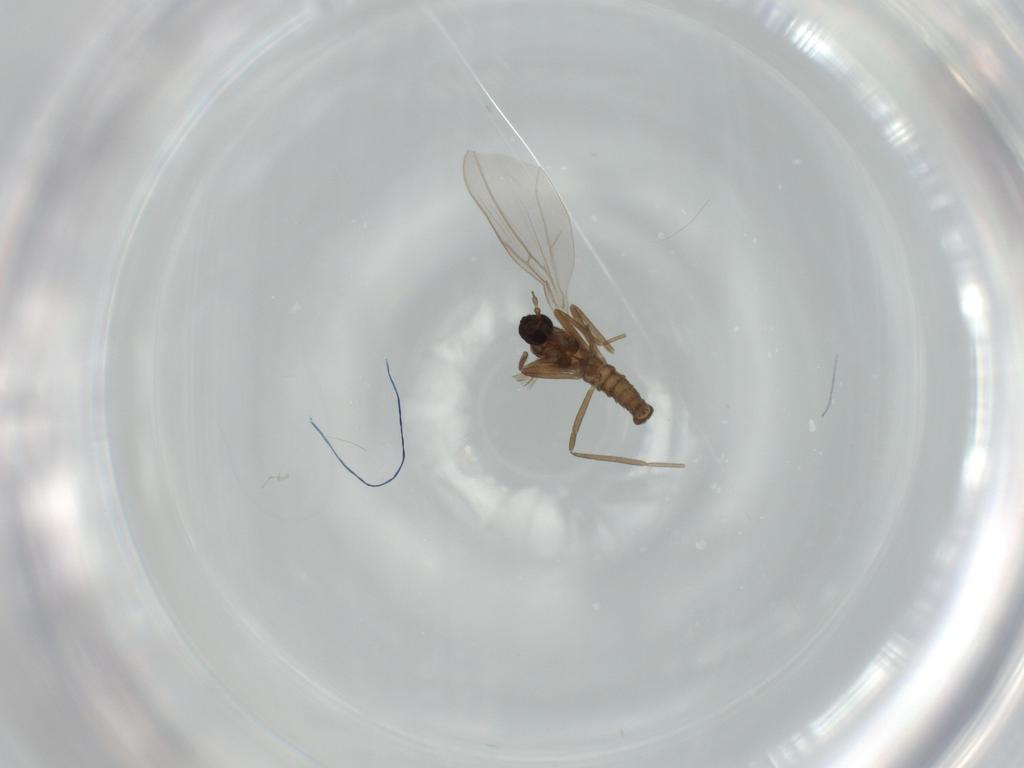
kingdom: Animalia
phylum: Arthropoda
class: Insecta
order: Diptera
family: Cecidomyiidae
